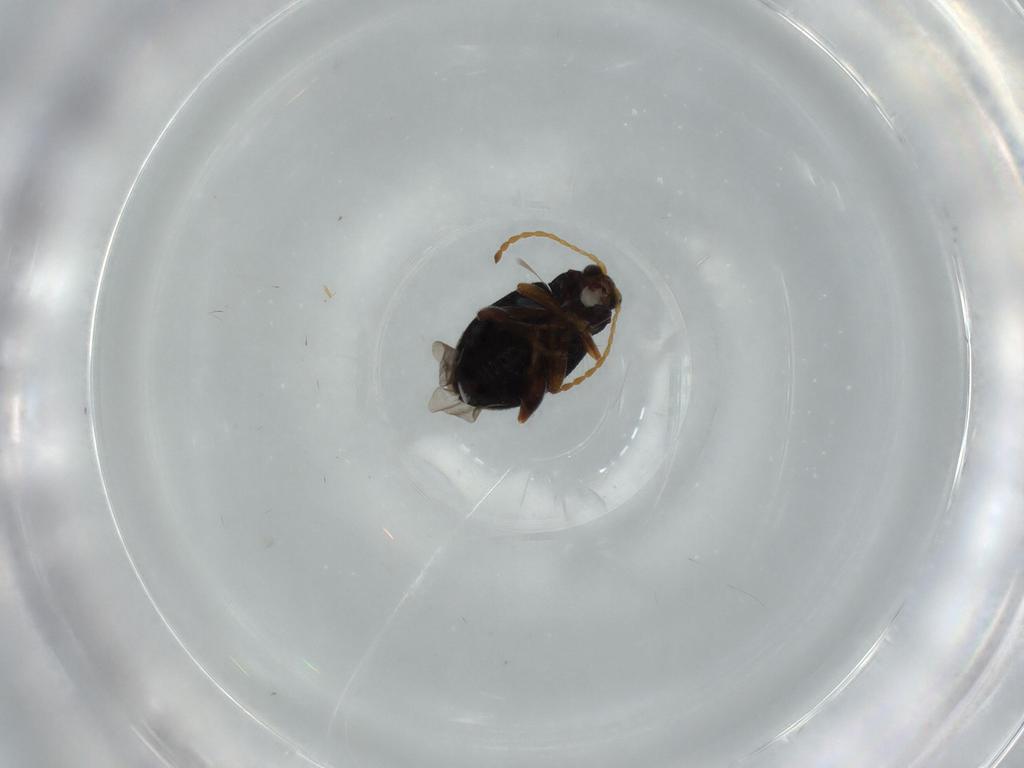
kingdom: Animalia
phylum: Arthropoda
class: Insecta
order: Coleoptera
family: Chrysomelidae
